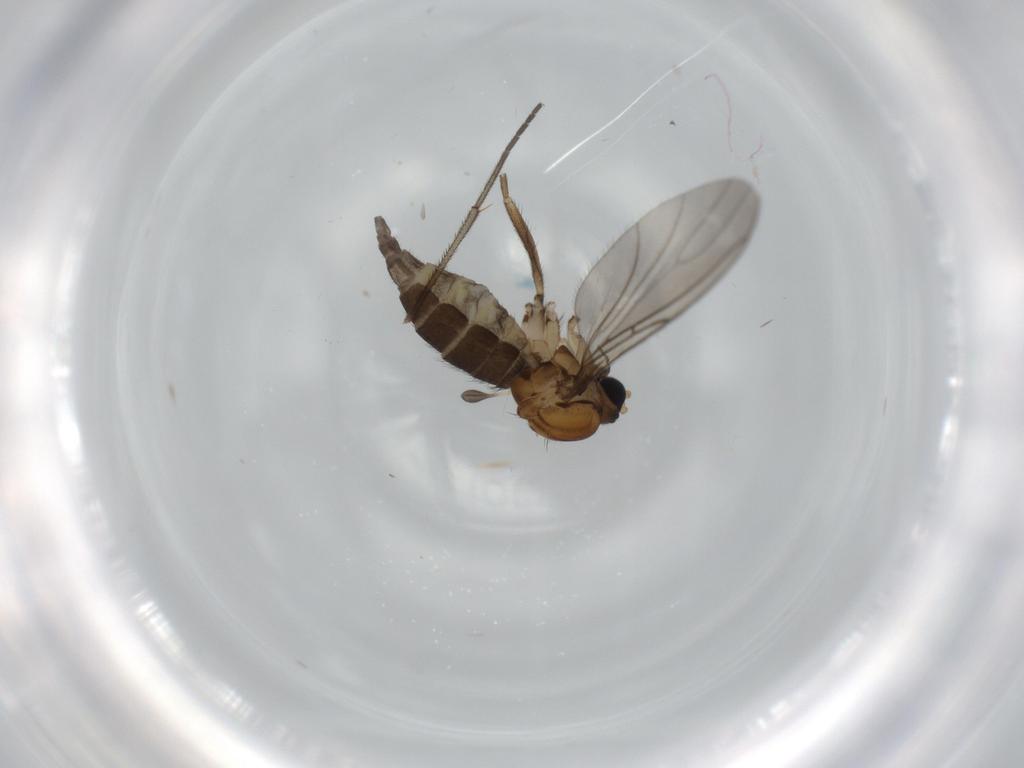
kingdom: Animalia
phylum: Arthropoda
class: Insecta
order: Diptera
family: Sciaridae
